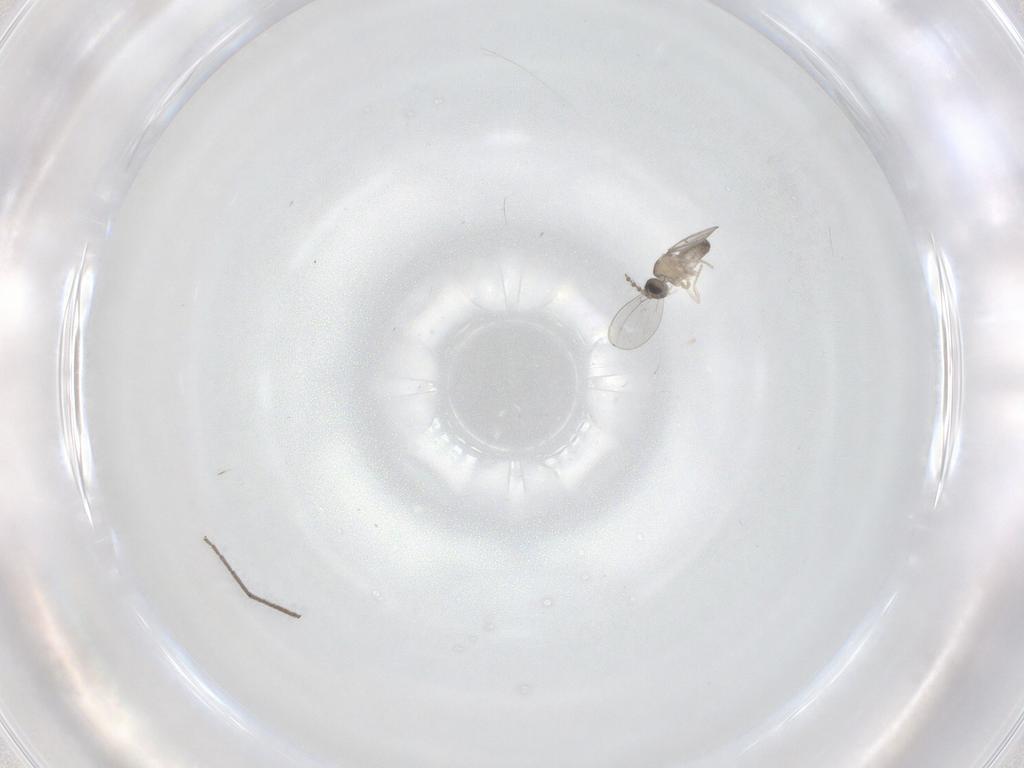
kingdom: Animalia
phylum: Arthropoda
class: Insecta
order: Diptera
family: Cecidomyiidae
